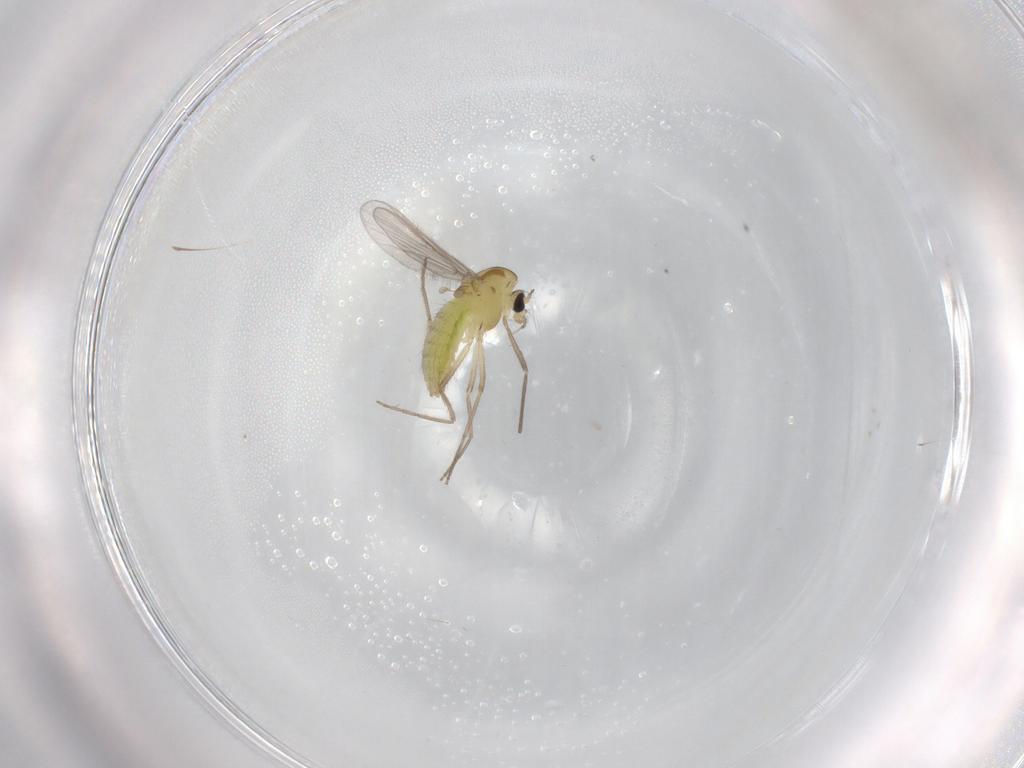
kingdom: Animalia
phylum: Arthropoda
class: Insecta
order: Diptera
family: Chironomidae
